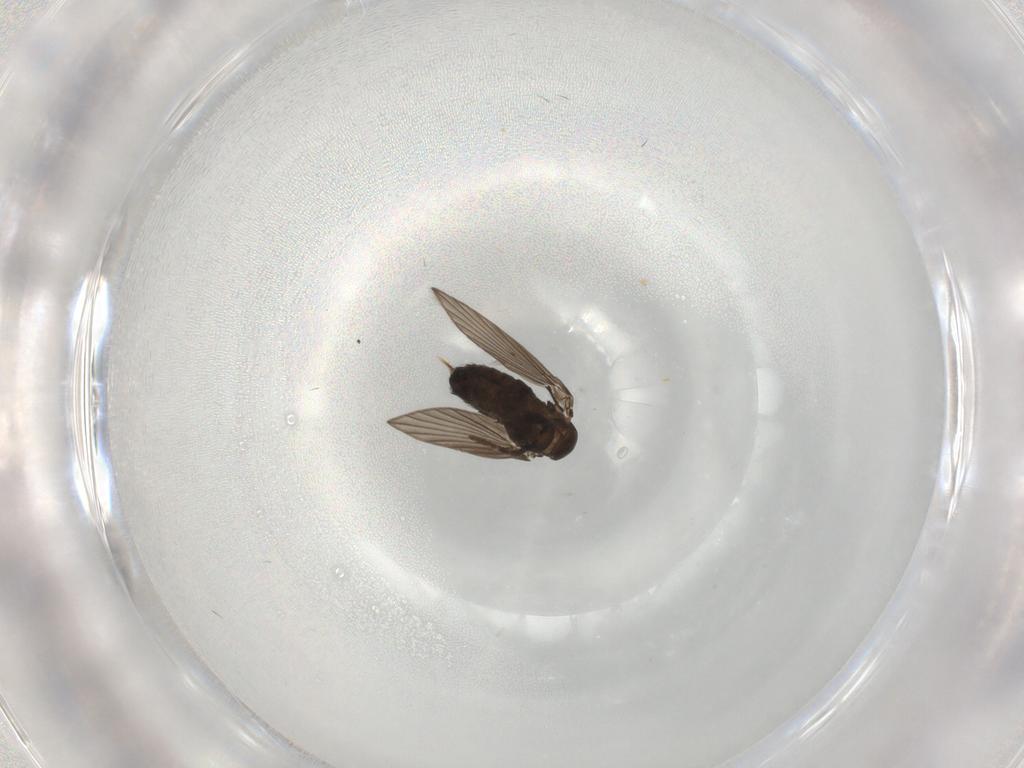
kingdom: Animalia
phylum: Arthropoda
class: Insecta
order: Diptera
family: Psychodidae
